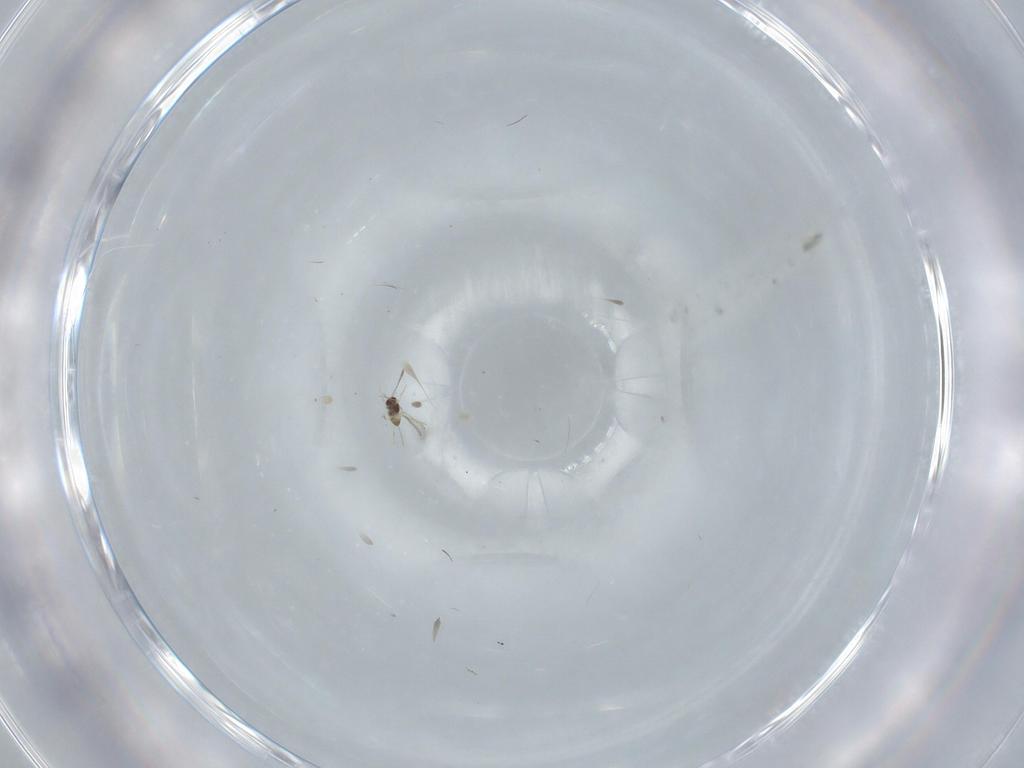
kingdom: Animalia
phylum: Arthropoda
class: Insecta
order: Hymenoptera
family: Mymaridae
